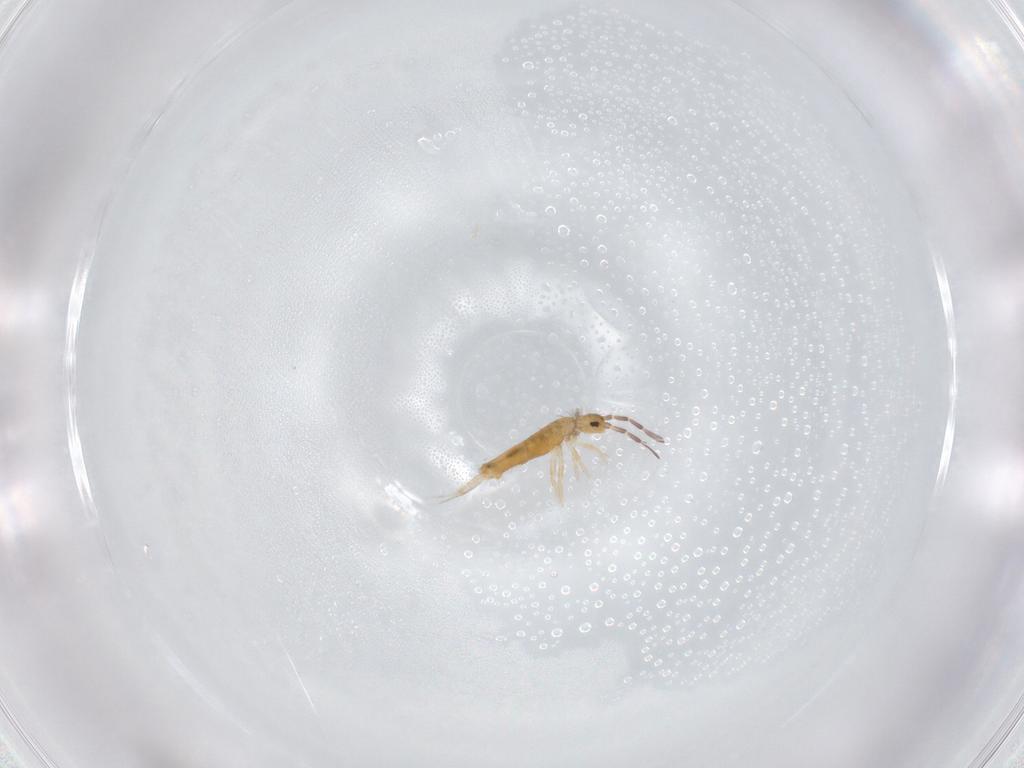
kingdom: Animalia
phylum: Arthropoda
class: Collembola
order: Entomobryomorpha
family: Entomobryidae
